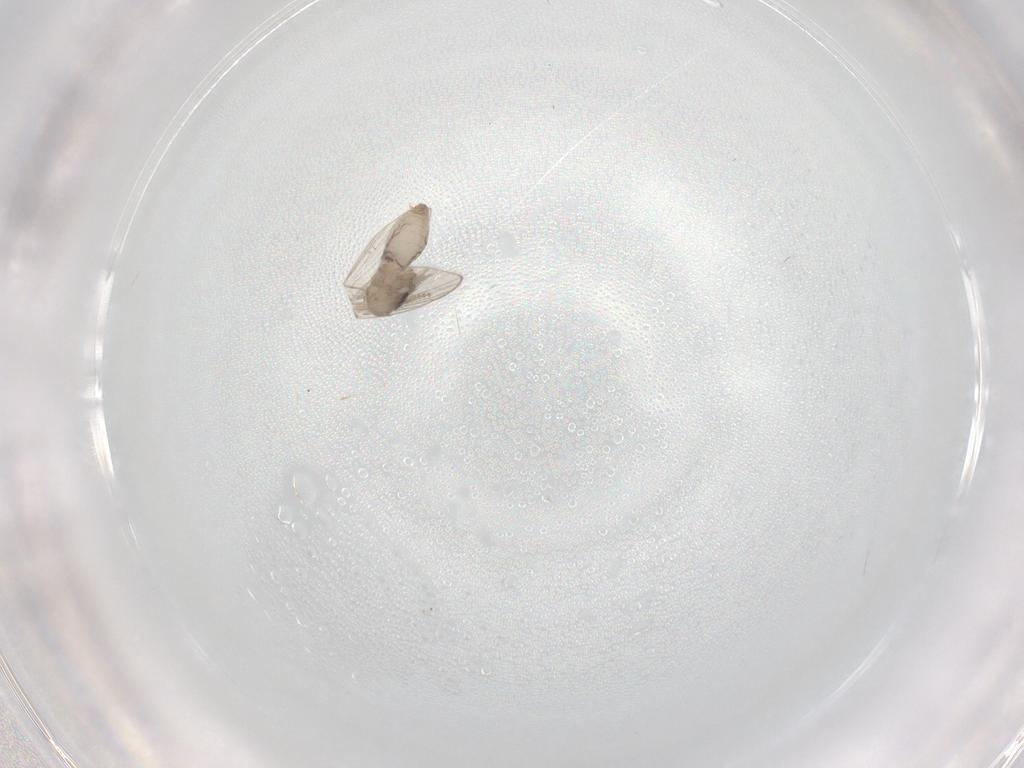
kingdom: Animalia
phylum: Arthropoda
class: Insecta
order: Diptera
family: Psychodidae
